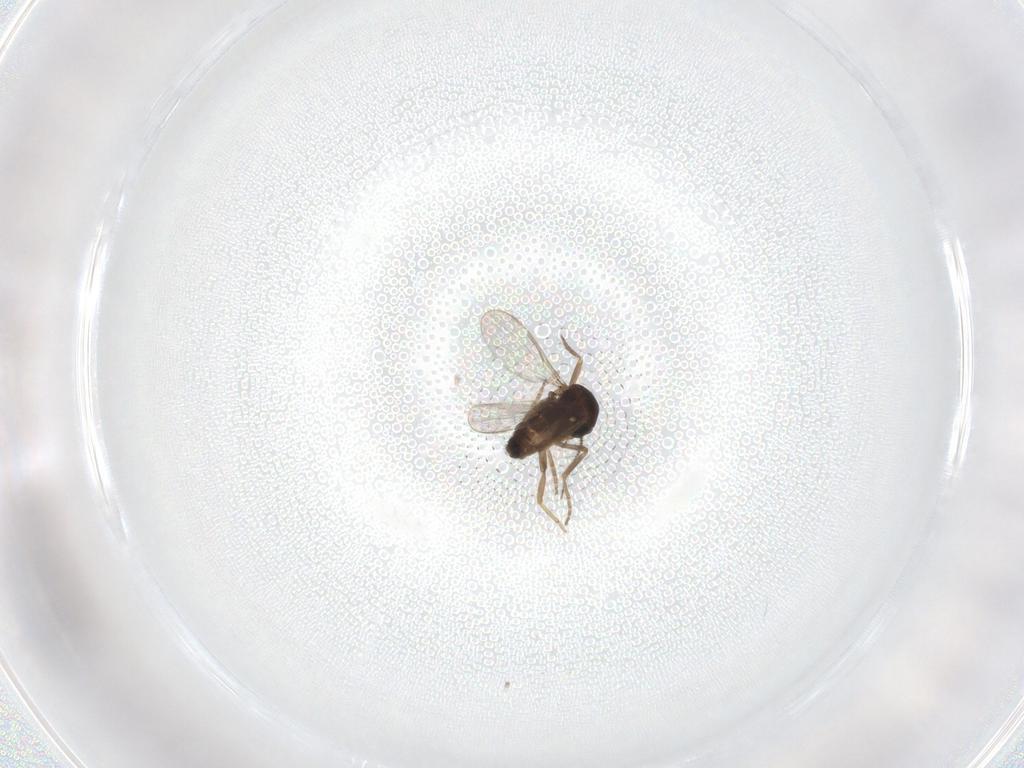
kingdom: Animalia
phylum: Arthropoda
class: Insecta
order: Diptera
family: Ceratopogonidae
